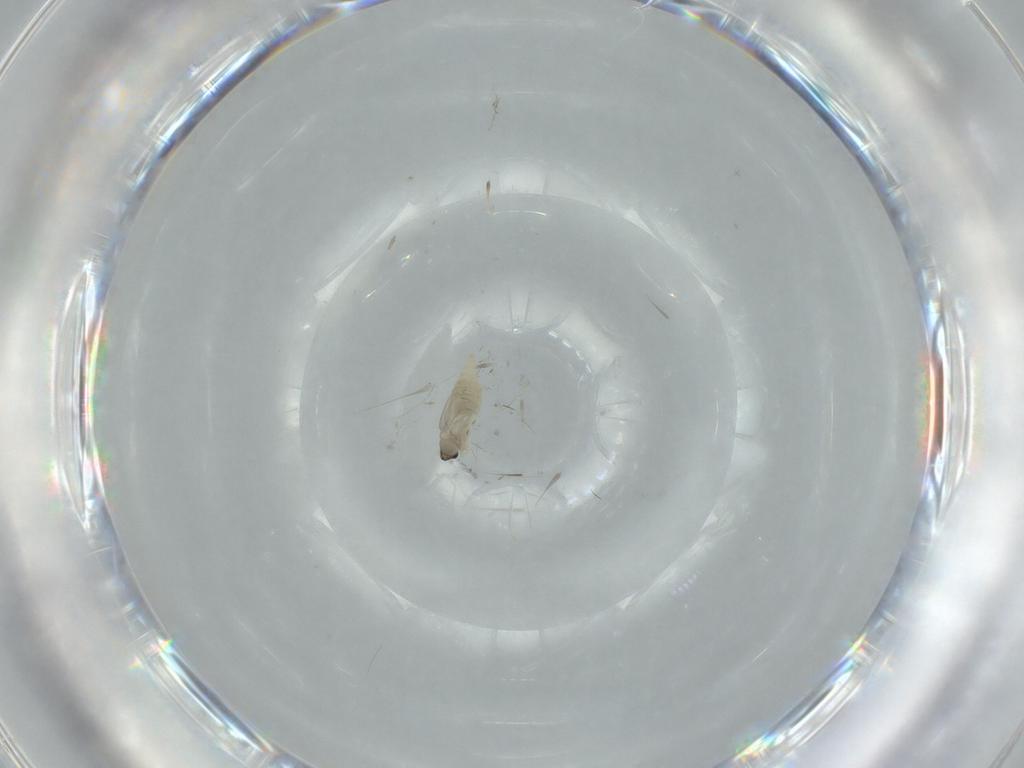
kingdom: Animalia
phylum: Arthropoda
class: Insecta
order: Diptera
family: Cecidomyiidae
